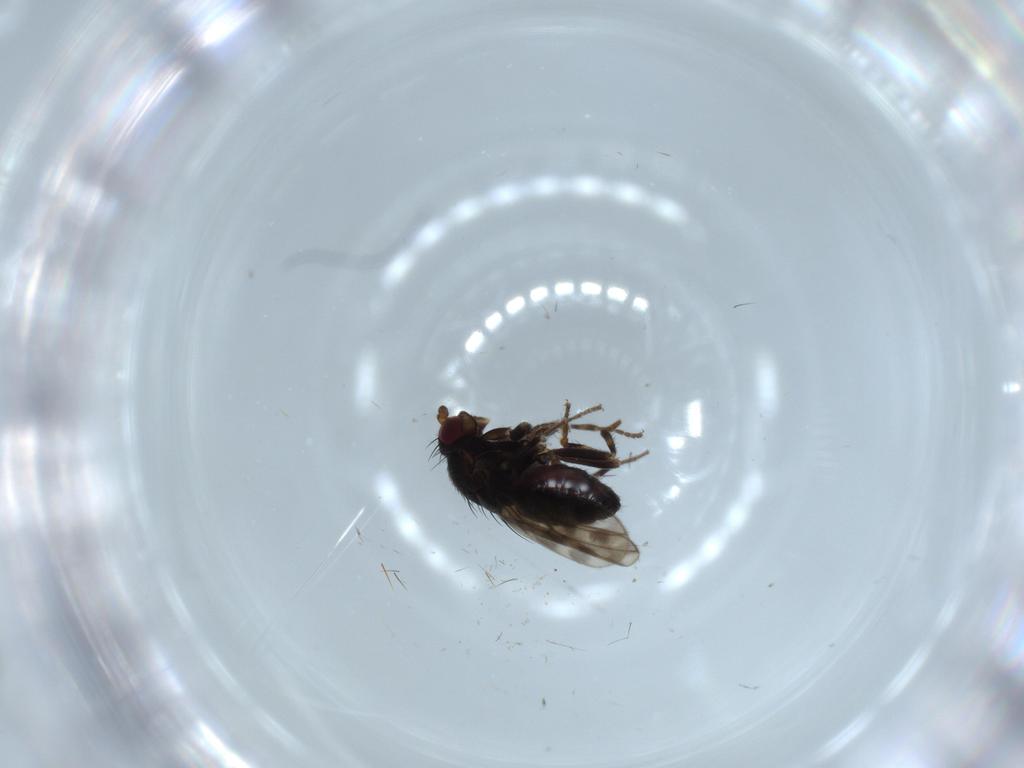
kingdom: Animalia
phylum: Arthropoda
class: Insecta
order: Diptera
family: Sphaeroceridae
